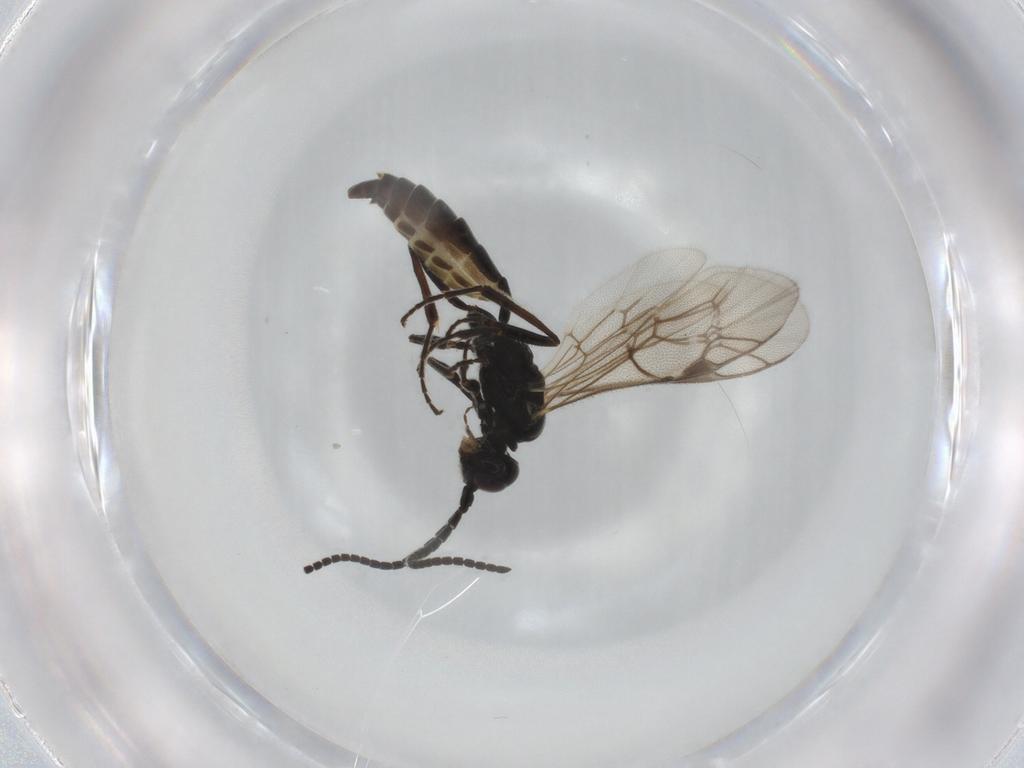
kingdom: Animalia
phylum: Arthropoda
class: Insecta
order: Hymenoptera
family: Ichneumonidae
